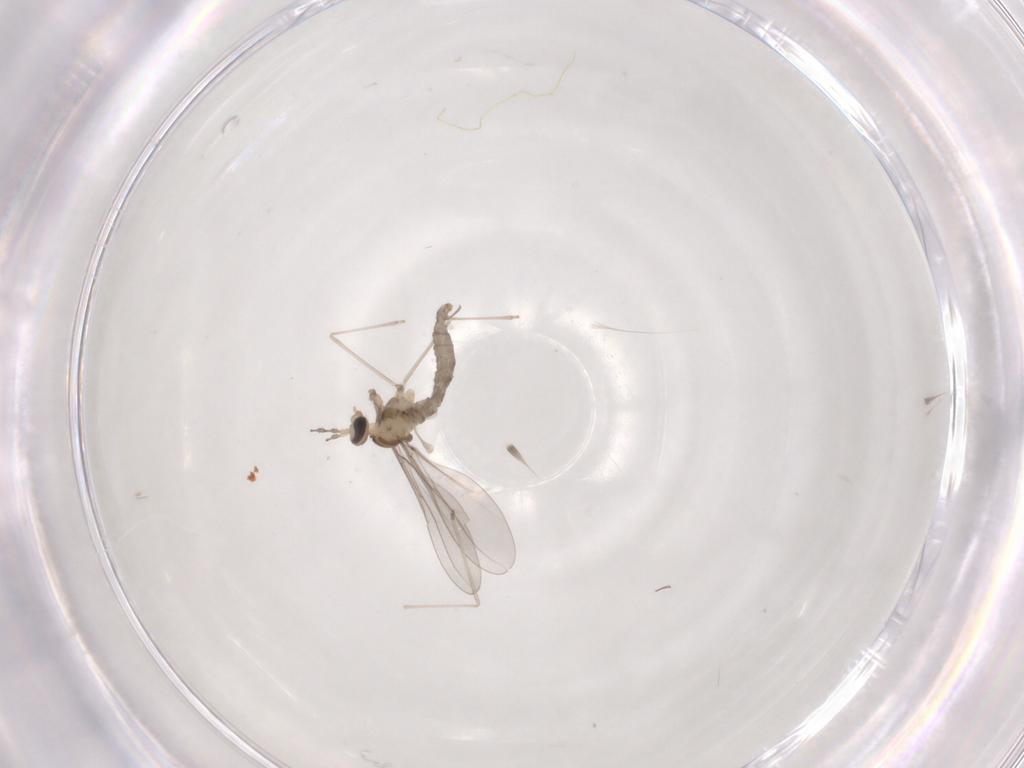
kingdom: Animalia
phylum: Arthropoda
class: Insecta
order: Diptera
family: Cecidomyiidae
